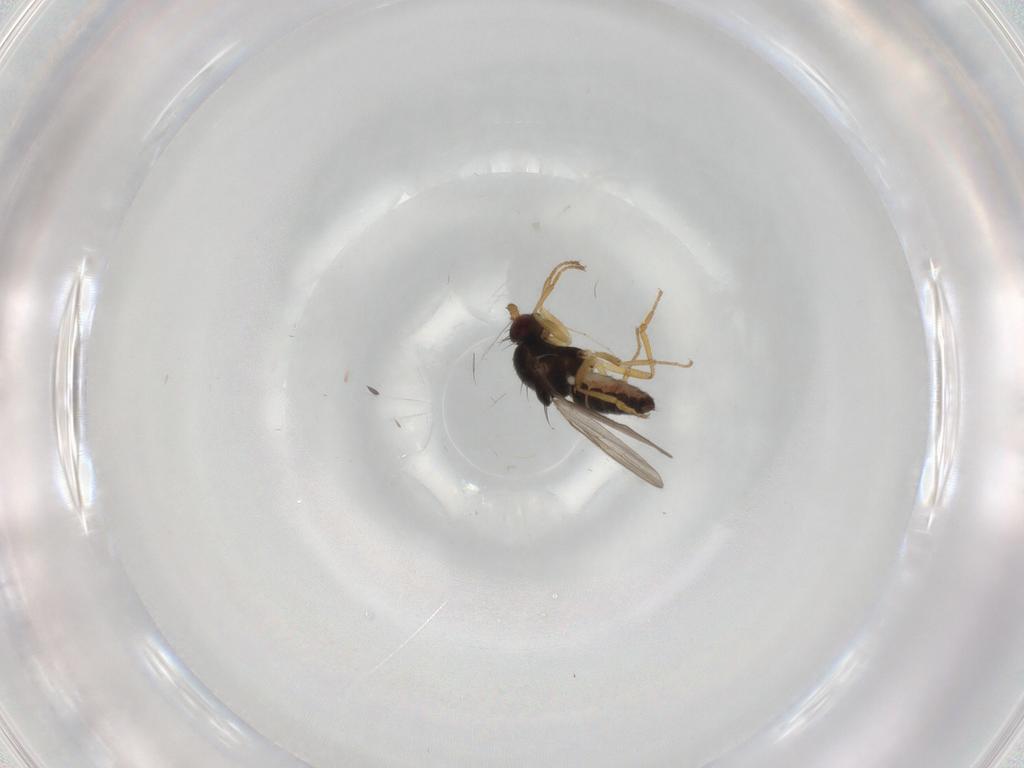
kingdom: Animalia
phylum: Arthropoda
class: Insecta
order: Diptera
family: Sphaeroceridae
